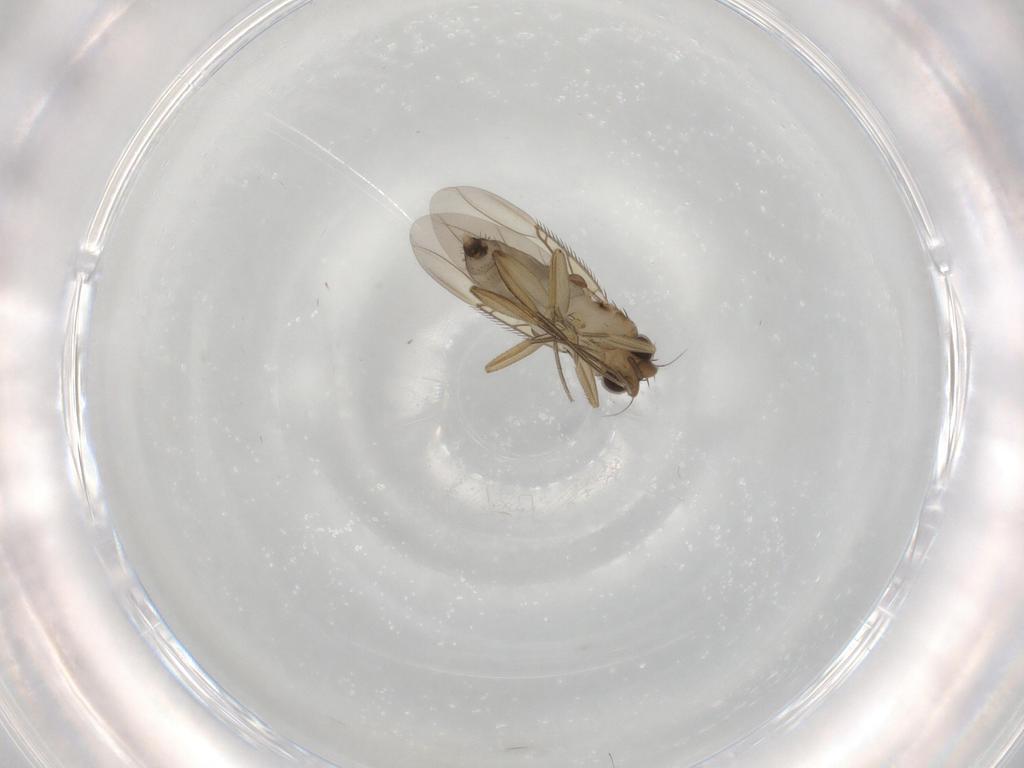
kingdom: Animalia
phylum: Arthropoda
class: Insecta
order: Diptera
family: Phoridae
